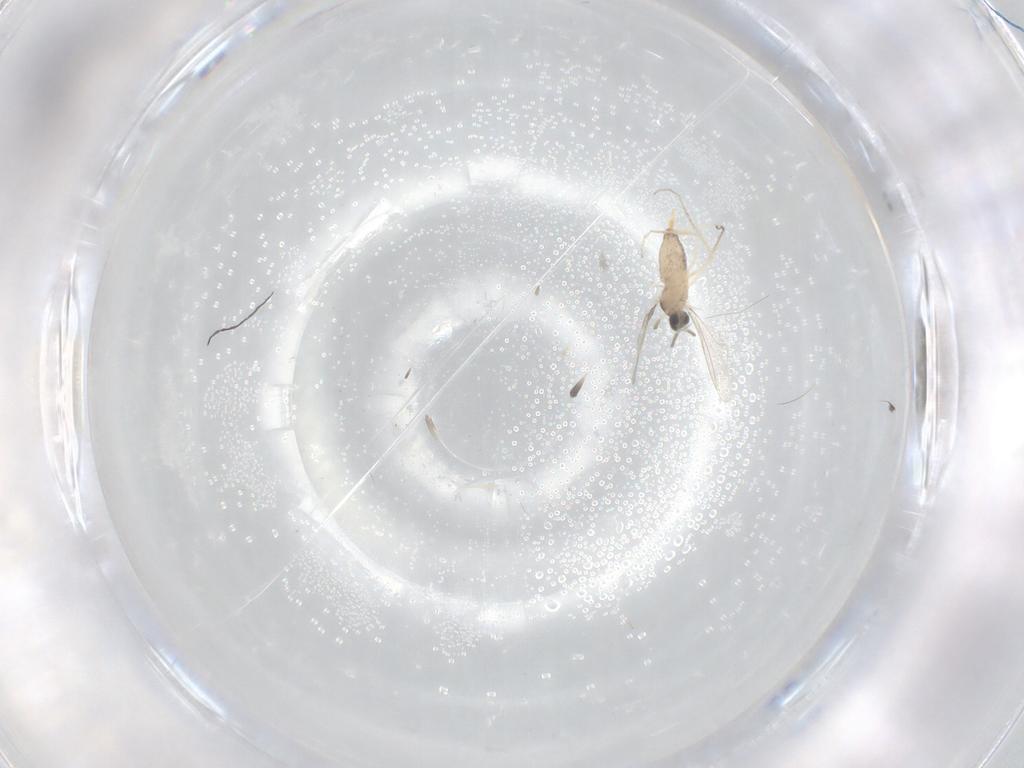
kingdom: Animalia
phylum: Arthropoda
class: Insecta
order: Diptera
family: Cecidomyiidae
